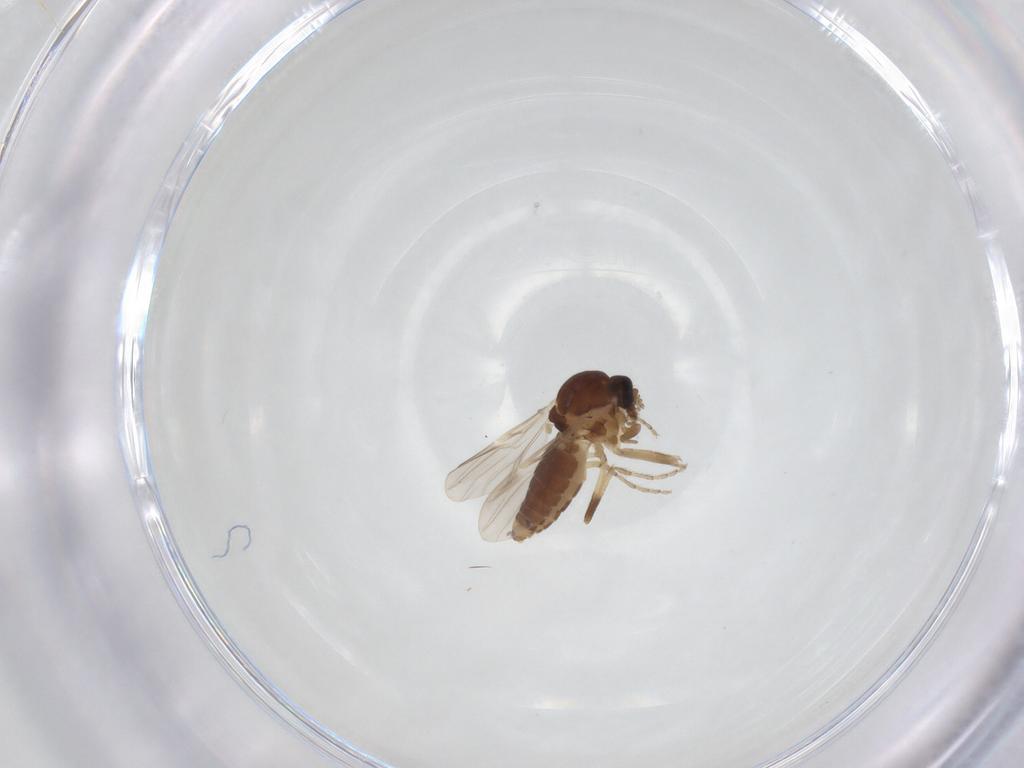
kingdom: Animalia
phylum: Arthropoda
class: Insecta
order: Diptera
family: Ceratopogonidae
